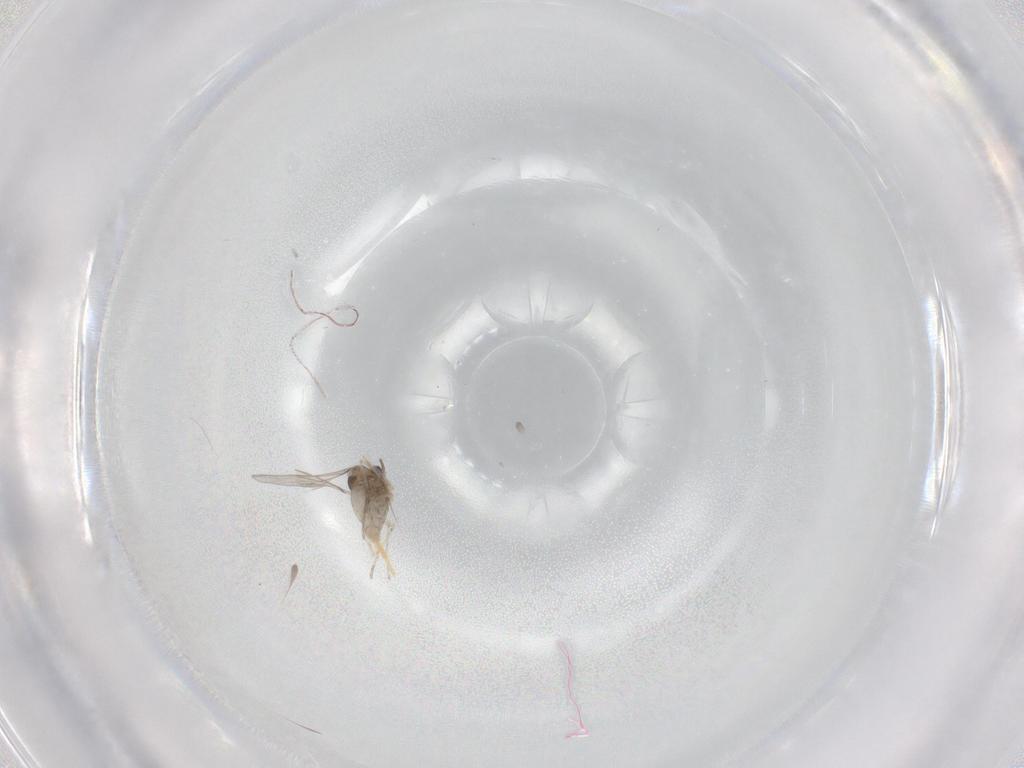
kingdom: Animalia
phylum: Arthropoda
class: Insecta
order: Diptera
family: Cecidomyiidae
